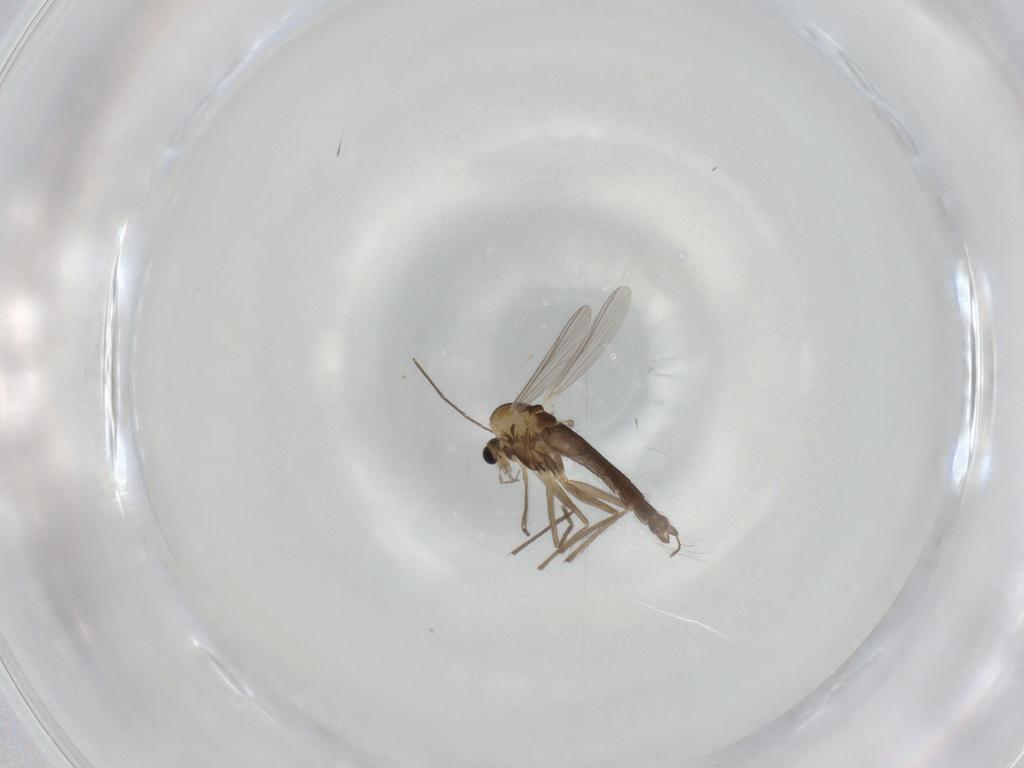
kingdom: Animalia
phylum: Arthropoda
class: Insecta
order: Diptera
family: Chironomidae
